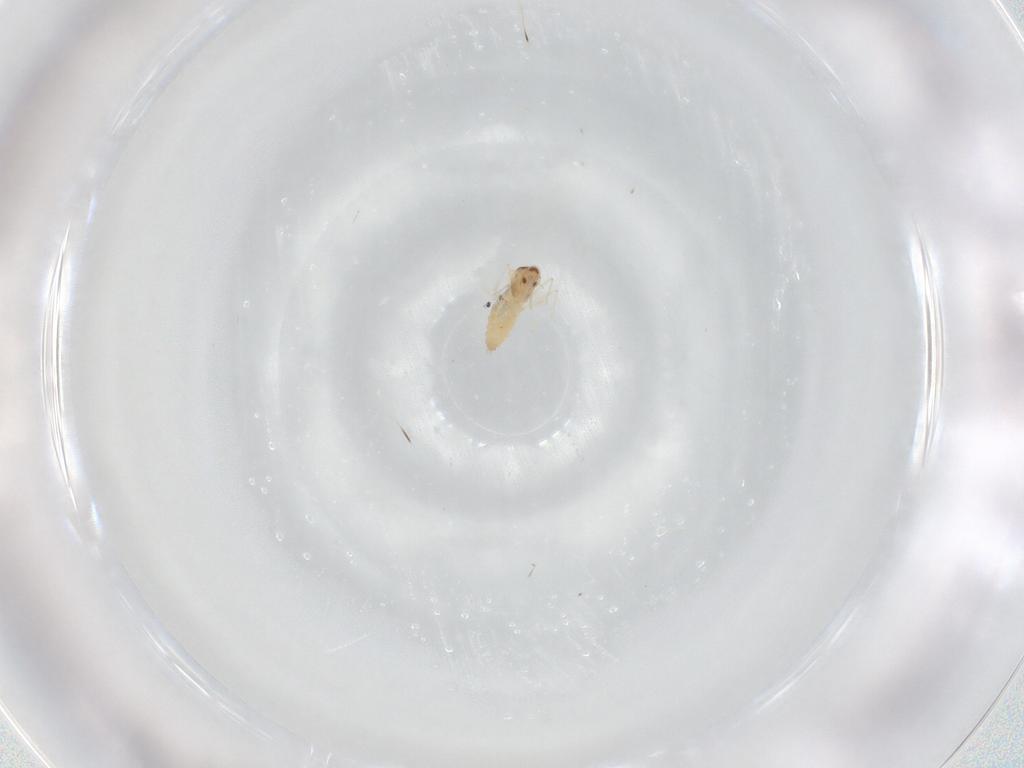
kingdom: Animalia
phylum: Arthropoda
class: Insecta
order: Diptera
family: Cecidomyiidae
